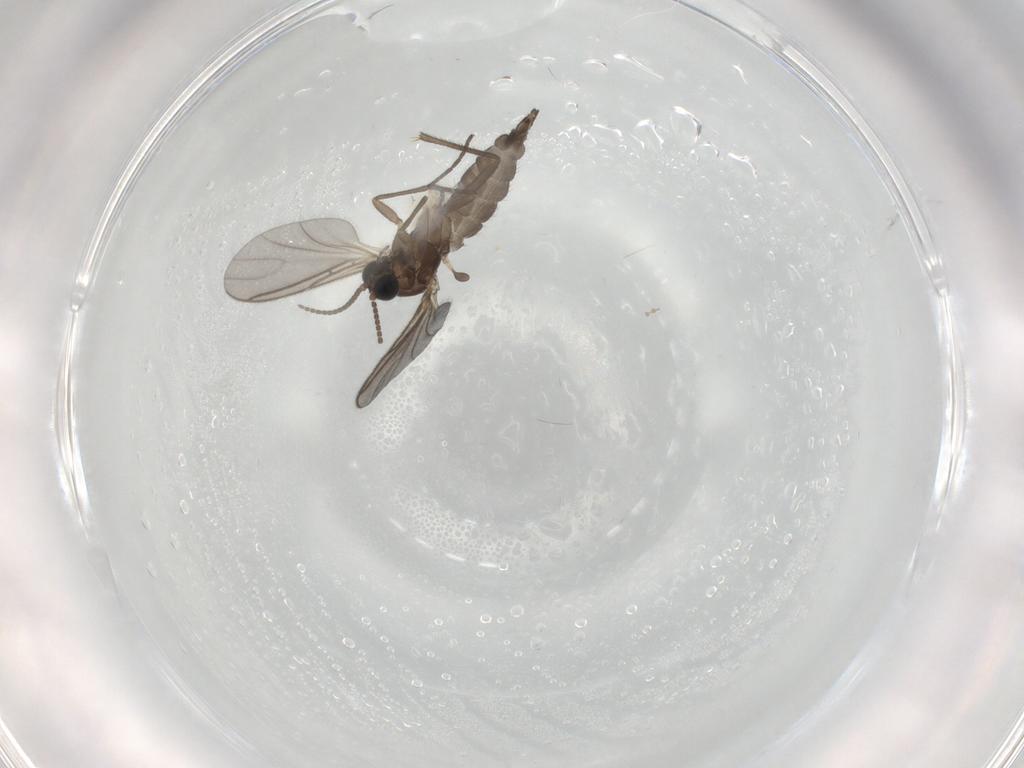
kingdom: Animalia
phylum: Arthropoda
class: Insecta
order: Diptera
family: Sciaridae
